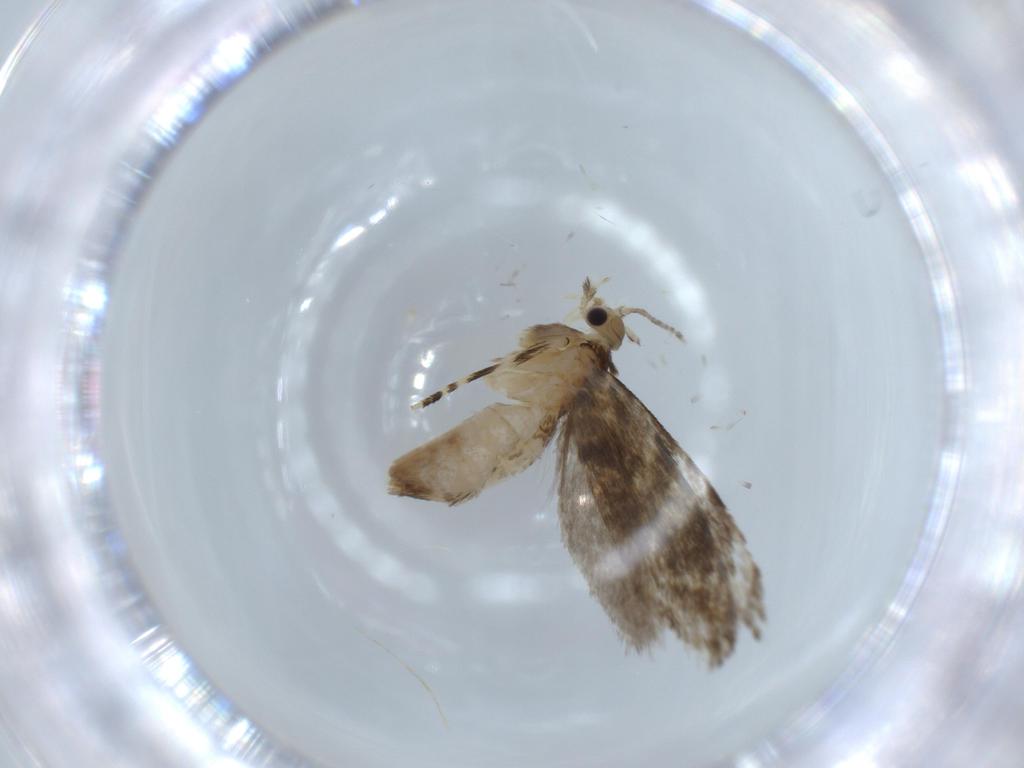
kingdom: Animalia
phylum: Arthropoda
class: Insecta
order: Lepidoptera
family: Tineidae
